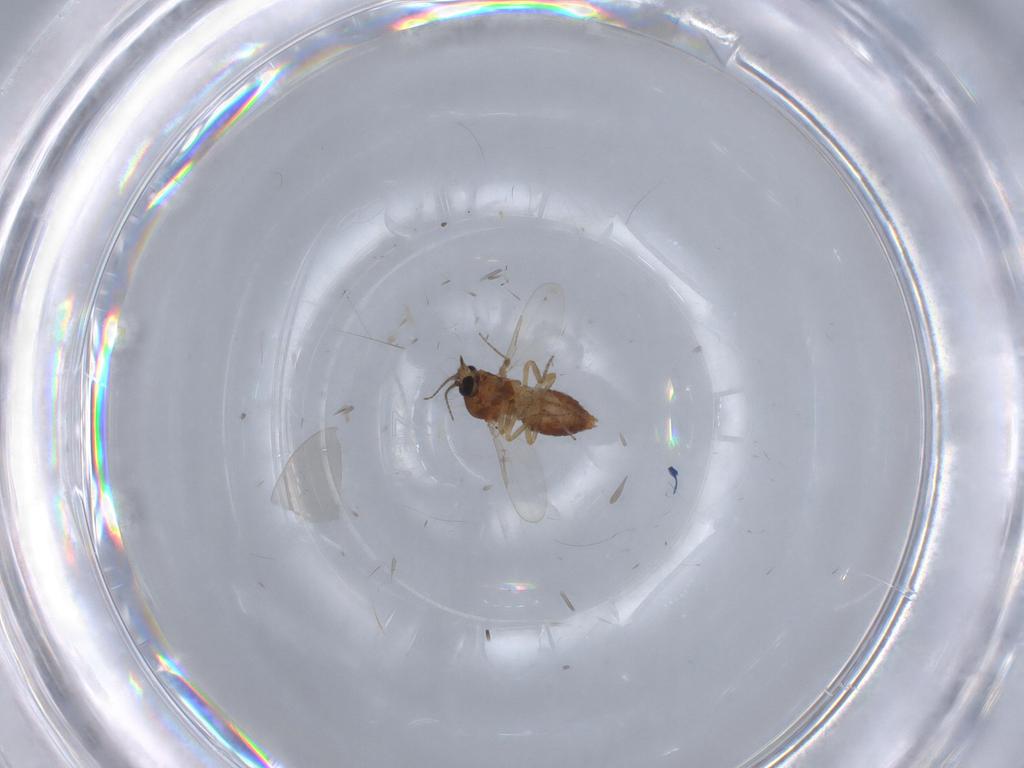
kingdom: Animalia
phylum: Arthropoda
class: Insecta
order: Diptera
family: Ceratopogonidae
